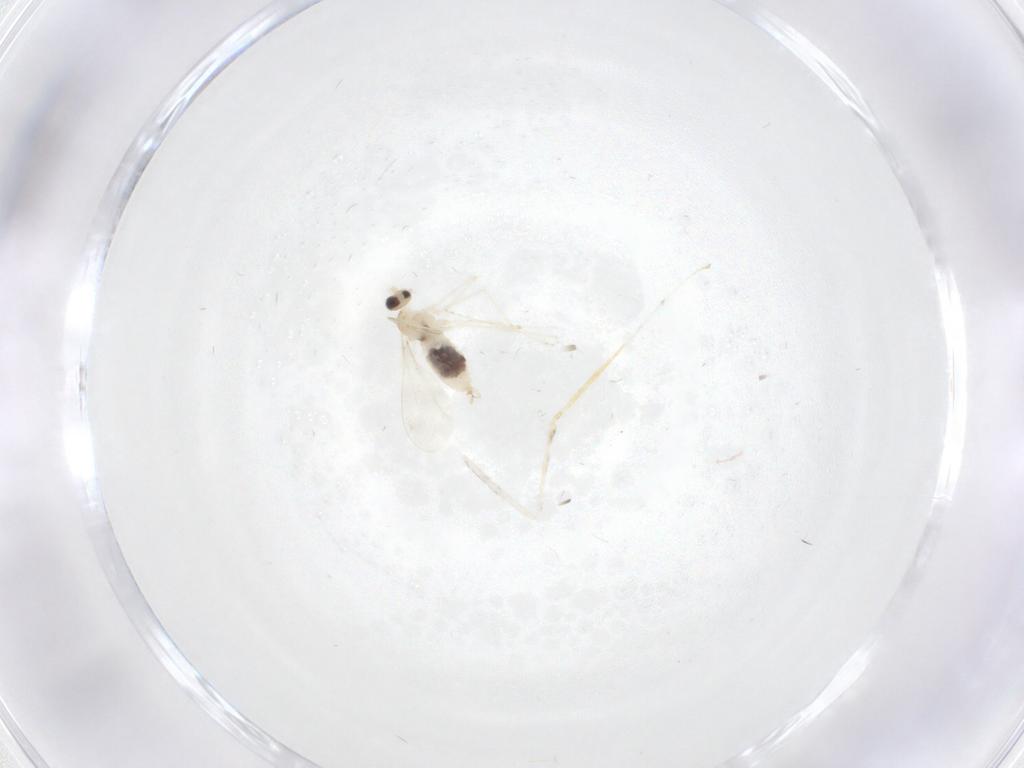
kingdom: Animalia
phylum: Arthropoda
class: Insecta
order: Diptera
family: Cecidomyiidae
